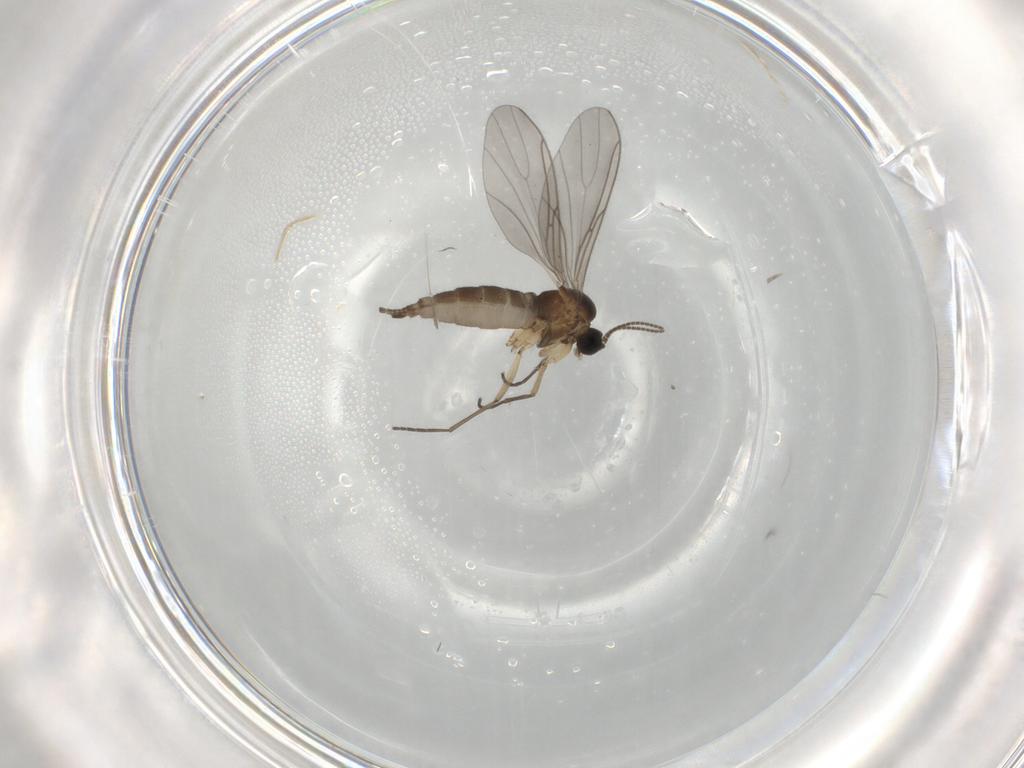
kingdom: Animalia
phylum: Arthropoda
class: Insecta
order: Diptera
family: Sciaridae
